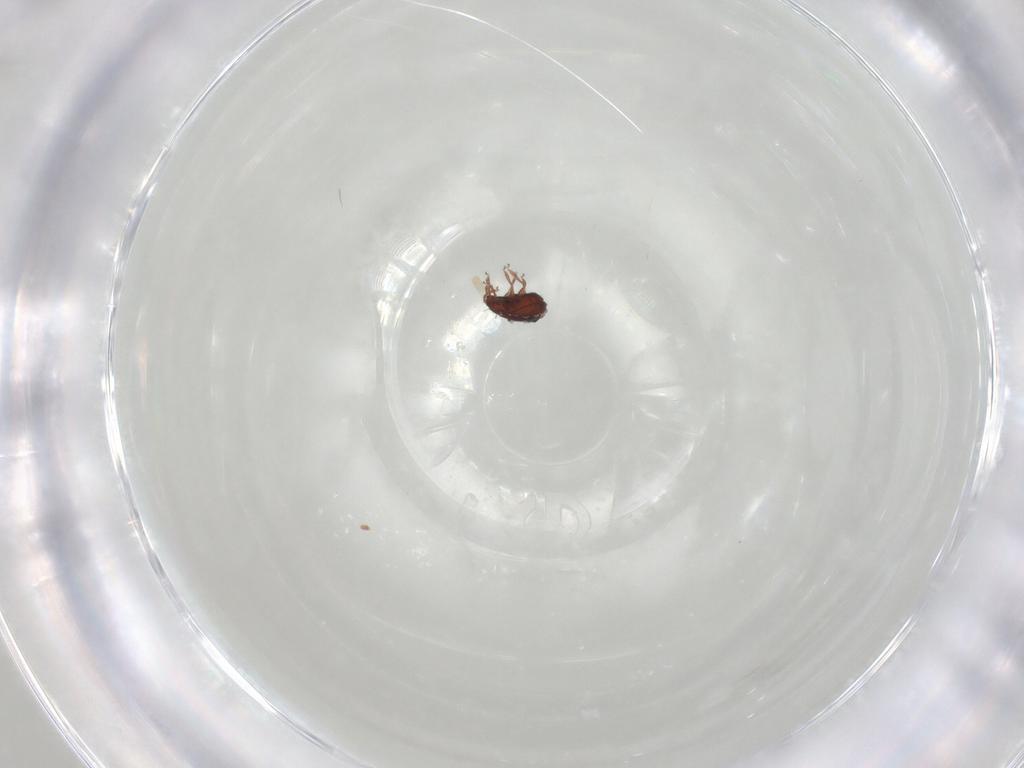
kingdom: Animalia
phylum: Arthropoda
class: Arachnida
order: Sarcoptiformes
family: Scheloribatidae
